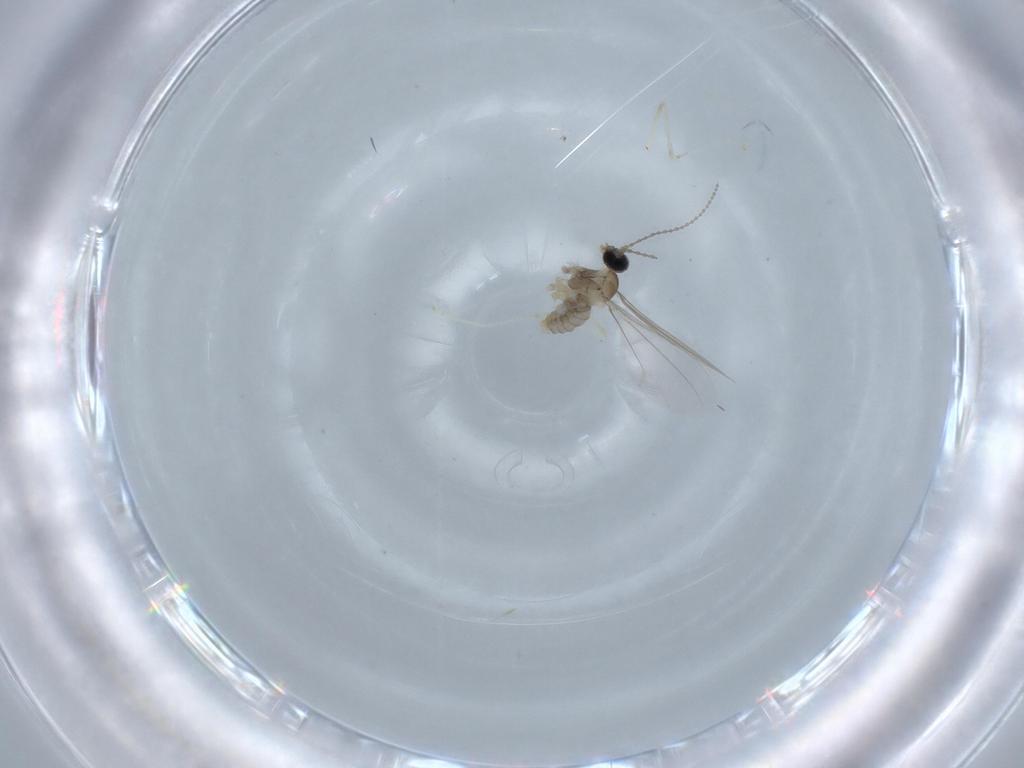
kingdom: Animalia
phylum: Arthropoda
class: Insecta
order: Diptera
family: Cecidomyiidae
